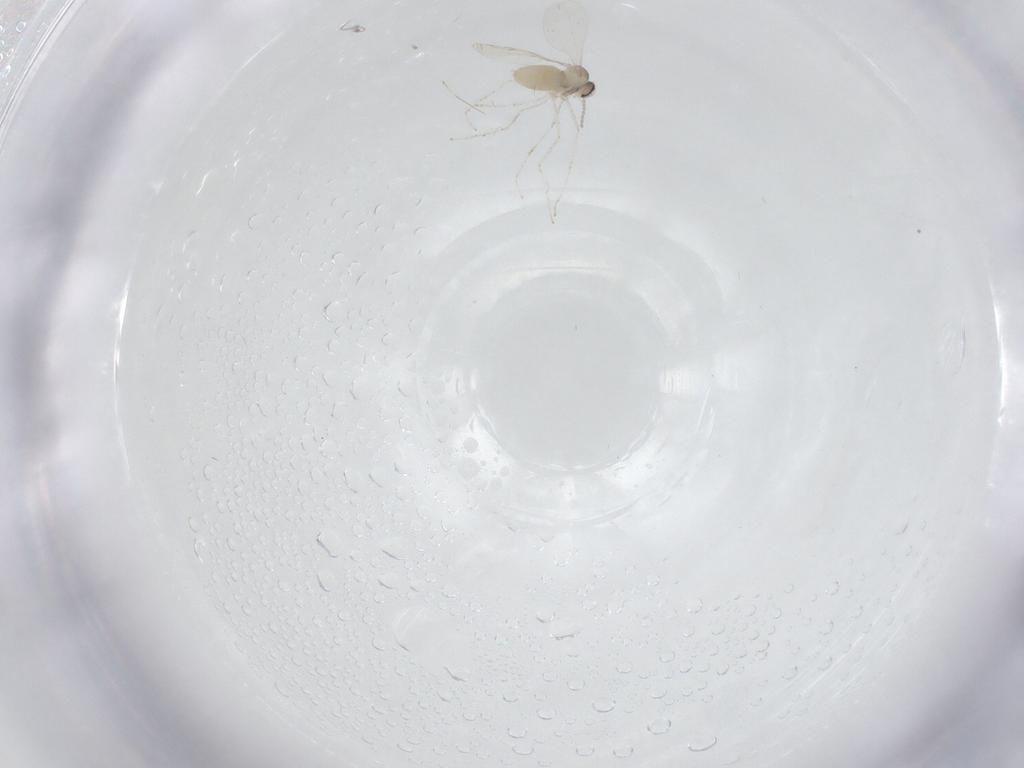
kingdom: Animalia
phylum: Arthropoda
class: Insecta
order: Diptera
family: Cecidomyiidae
